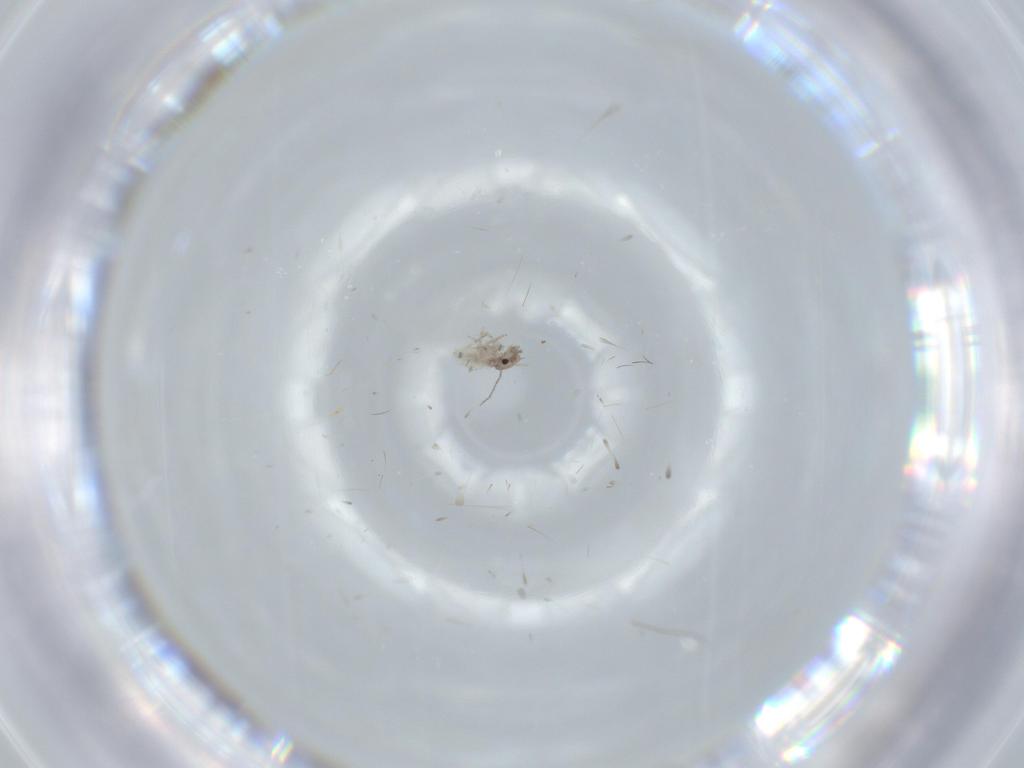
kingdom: Animalia
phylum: Arthropoda
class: Insecta
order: Psocodea
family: Lepidopsocidae
